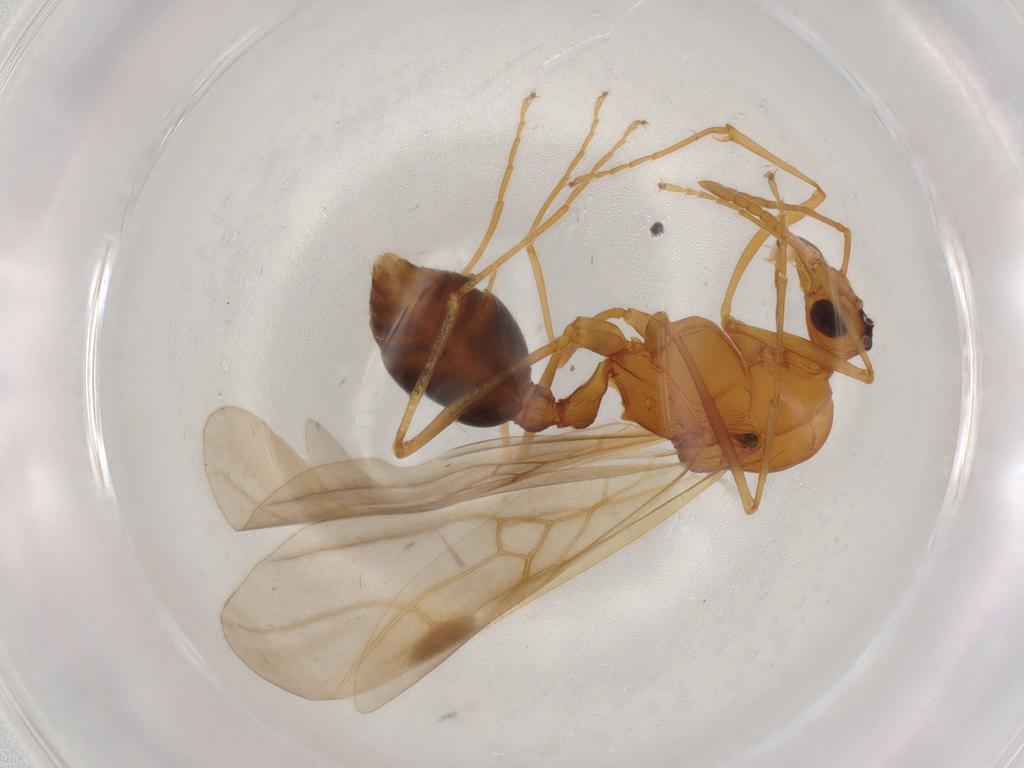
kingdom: Animalia
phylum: Arthropoda
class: Insecta
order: Hymenoptera
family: Formicidae
